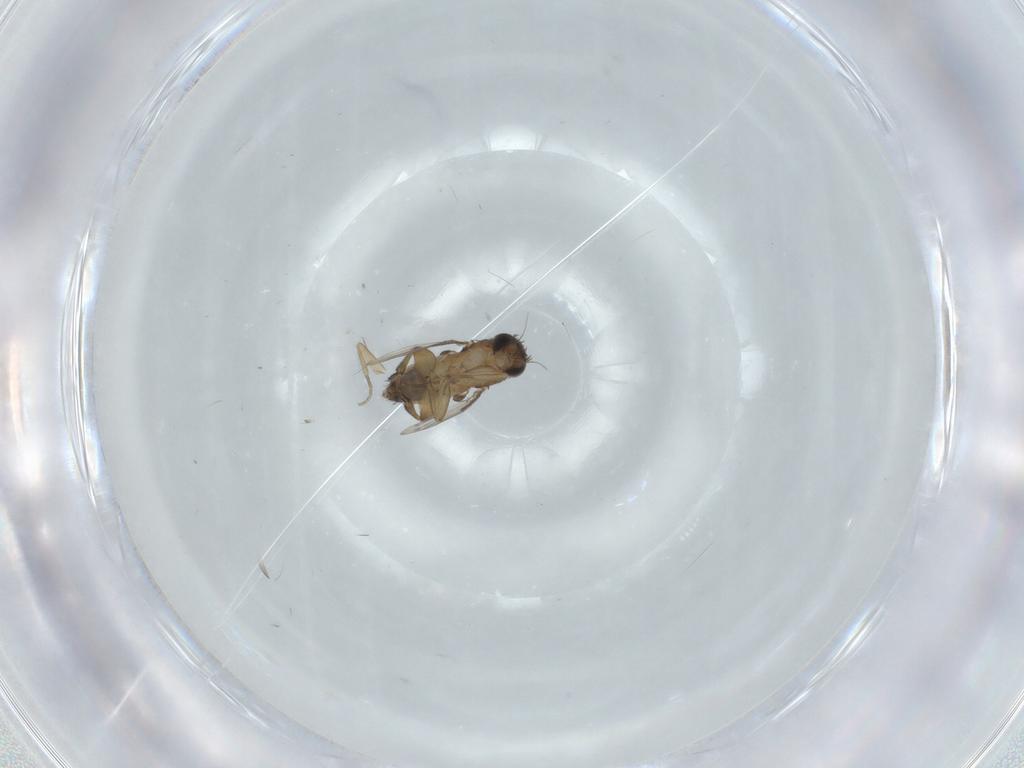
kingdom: Animalia
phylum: Arthropoda
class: Insecta
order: Diptera
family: Phoridae
